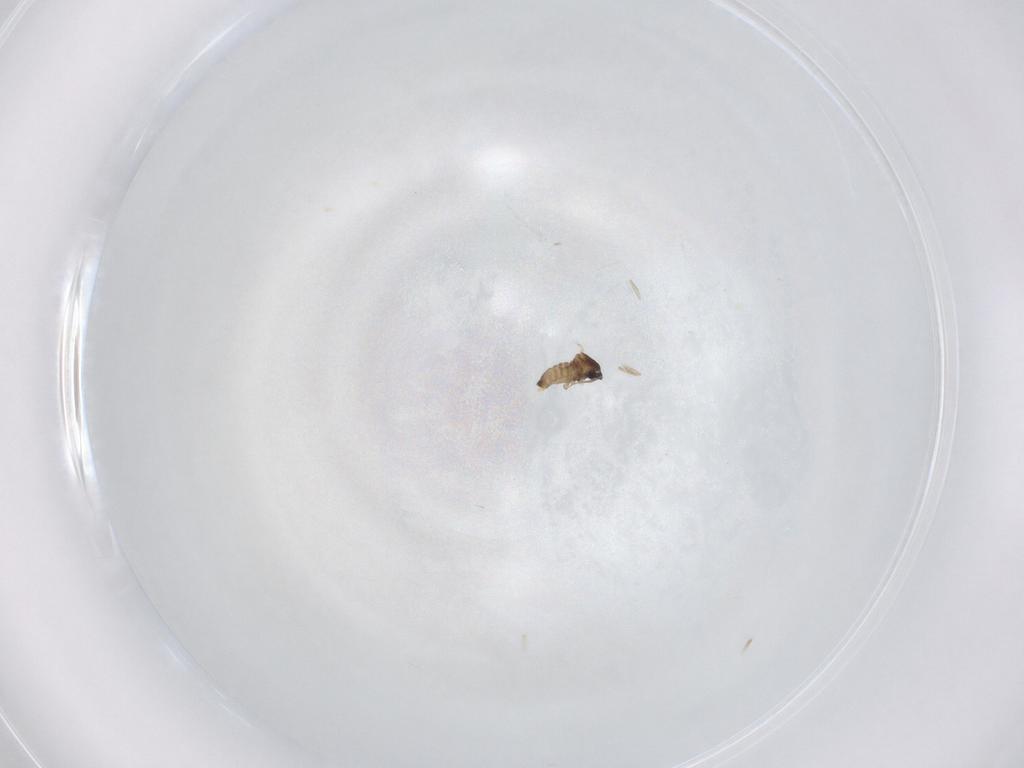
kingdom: Animalia
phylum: Arthropoda
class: Insecta
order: Diptera
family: Cecidomyiidae
